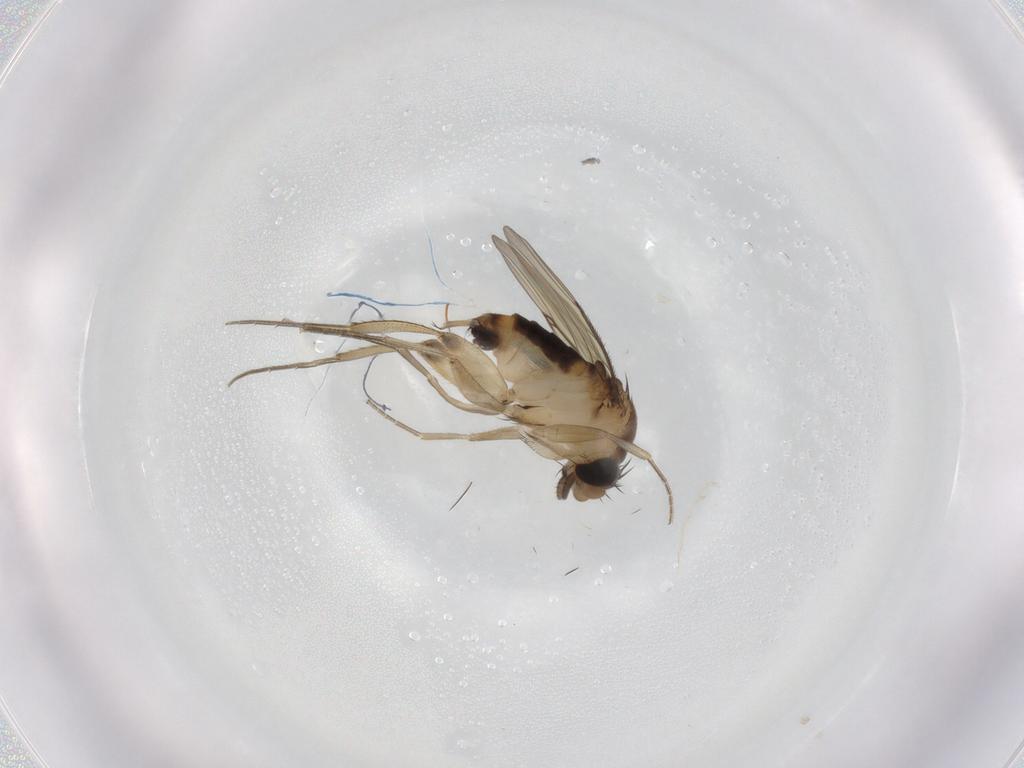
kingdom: Animalia
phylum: Arthropoda
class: Insecta
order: Diptera
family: Phoridae
